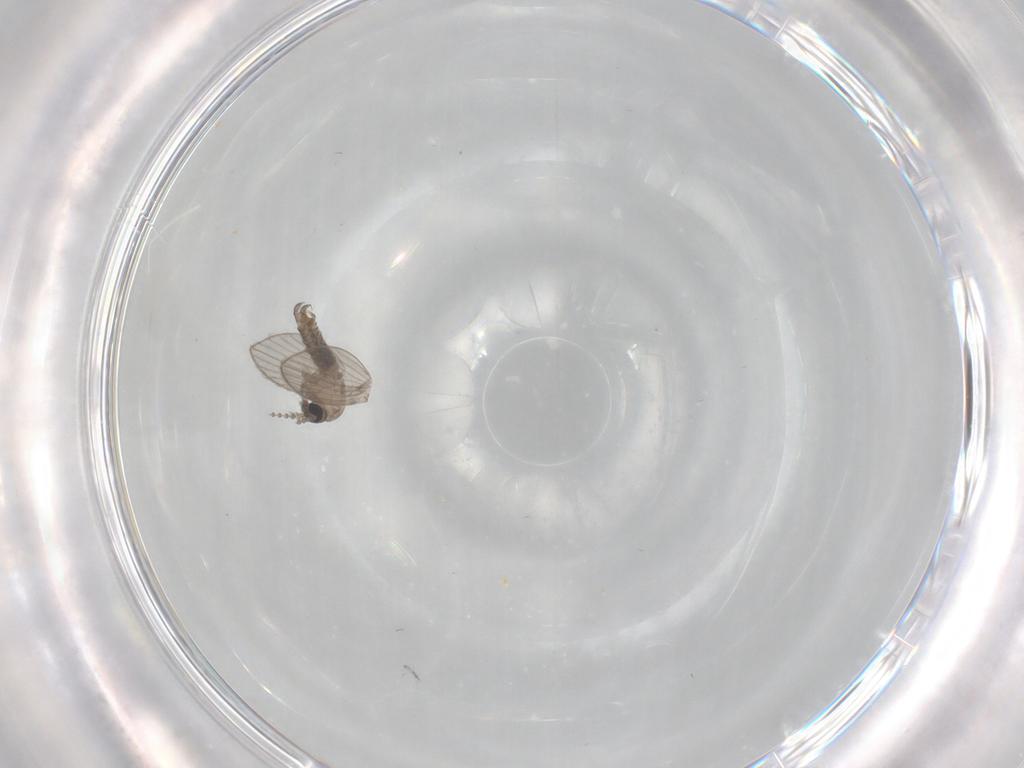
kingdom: Animalia
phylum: Arthropoda
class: Insecta
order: Diptera
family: Psychodidae
